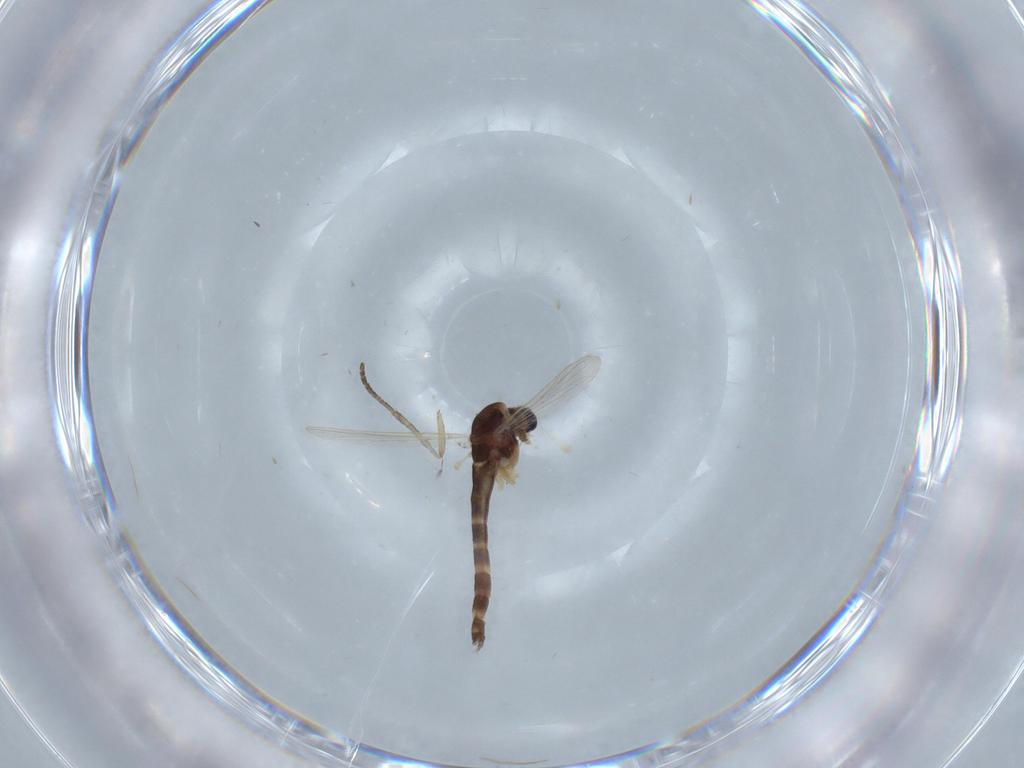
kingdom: Animalia
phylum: Arthropoda
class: Insecta
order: Diptera
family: Chironomidae
